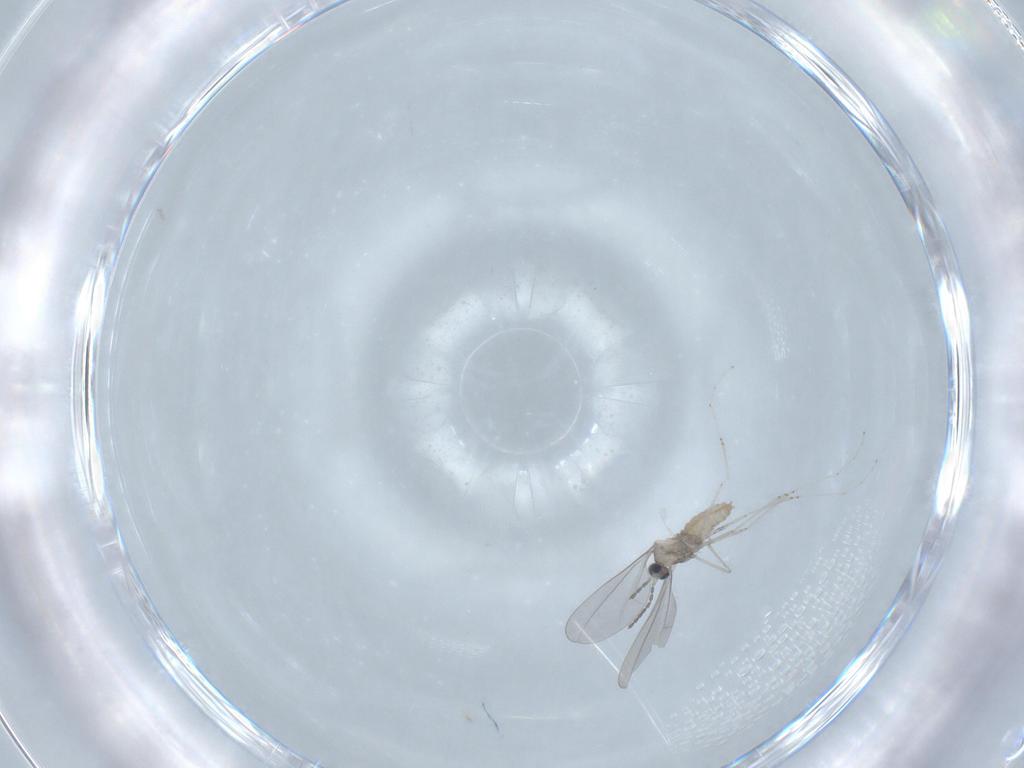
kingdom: Animalia
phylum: Arthropoda
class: Insecta
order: Diptera
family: Cecidomyiidae
